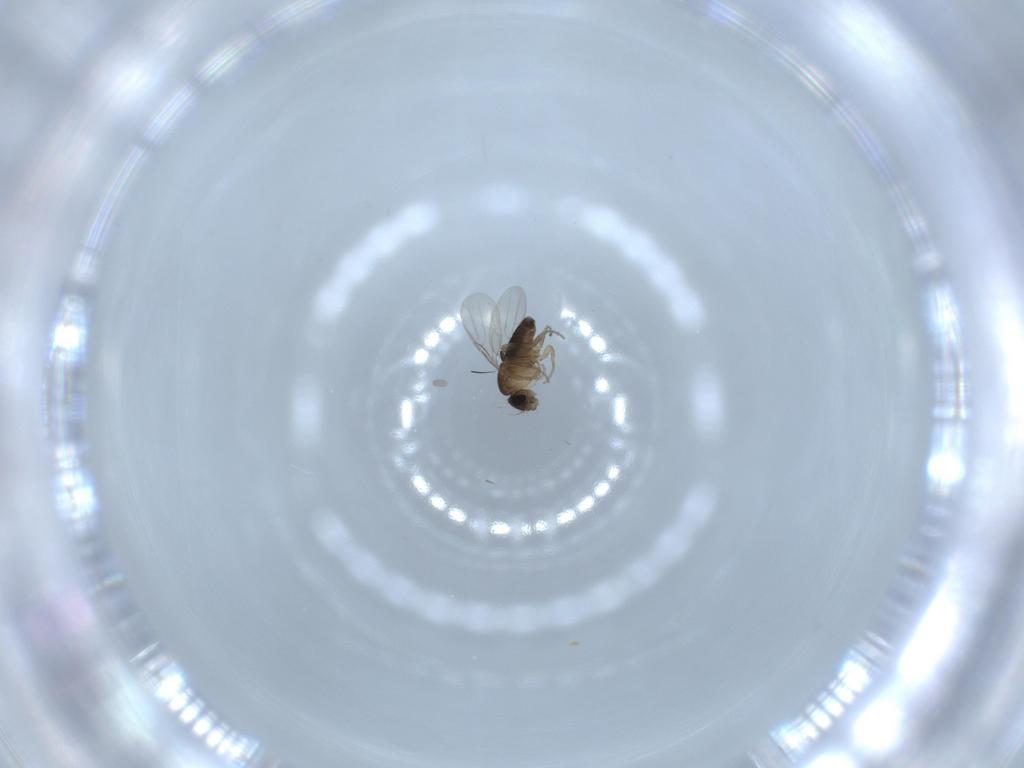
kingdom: Animalia
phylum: Arthropoda
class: Insecta
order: Diptera
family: Phoridae
